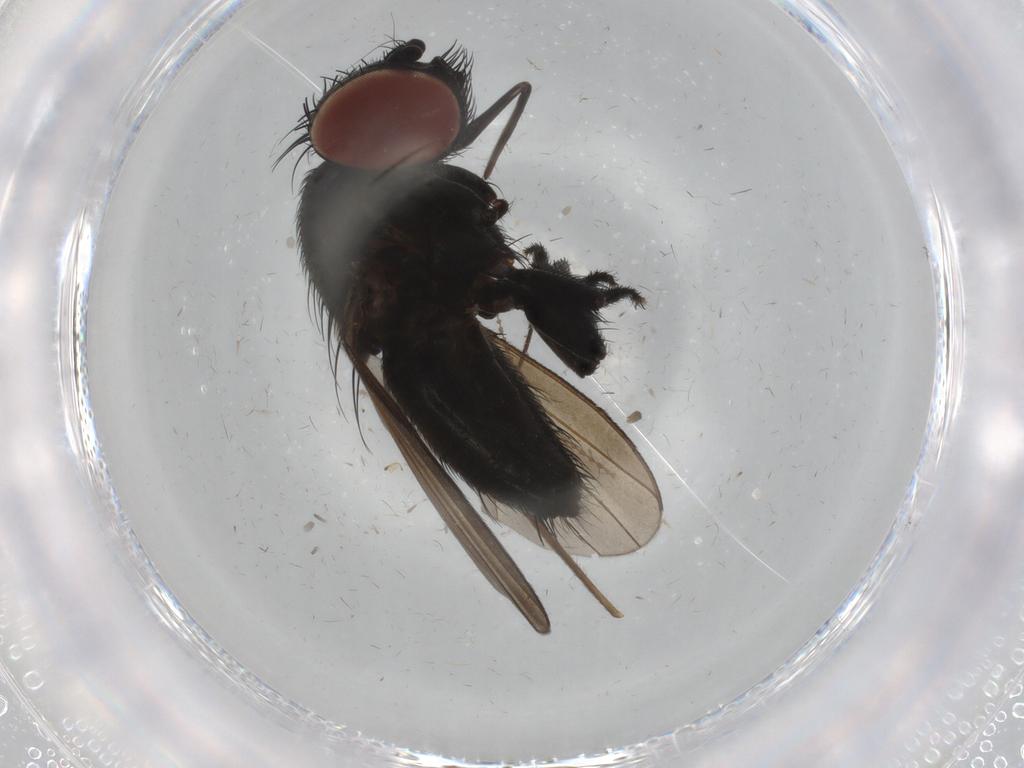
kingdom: Animalia
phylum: Arthropoda
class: Insecta
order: Diptera
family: Milichiidae
